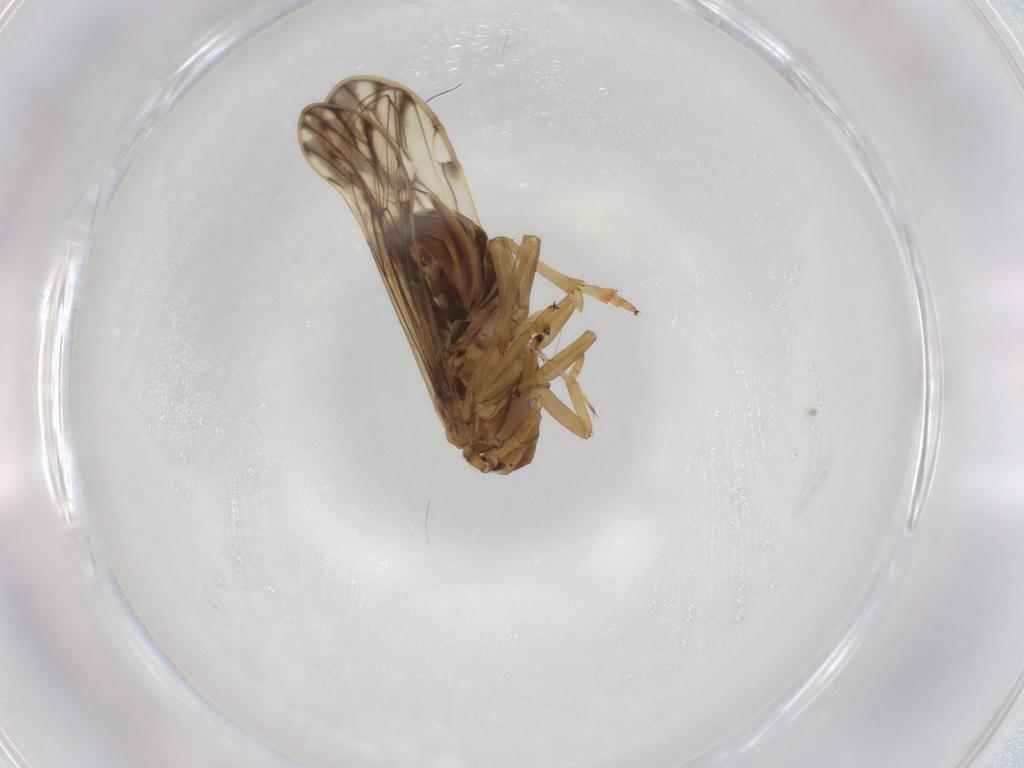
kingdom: Animalia
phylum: Arthropoda
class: Insecta
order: Hemiptera
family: Delphacidae
